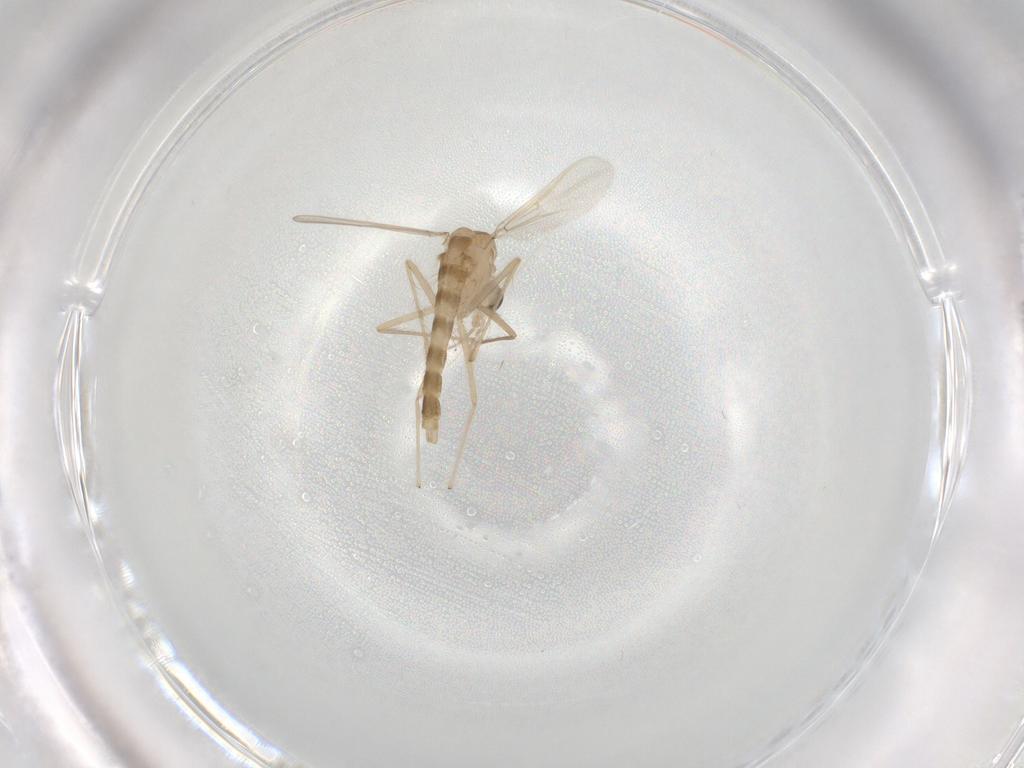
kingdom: Animalia
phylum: Arthropoda
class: Insecta
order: Diptera
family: Chironomidae
